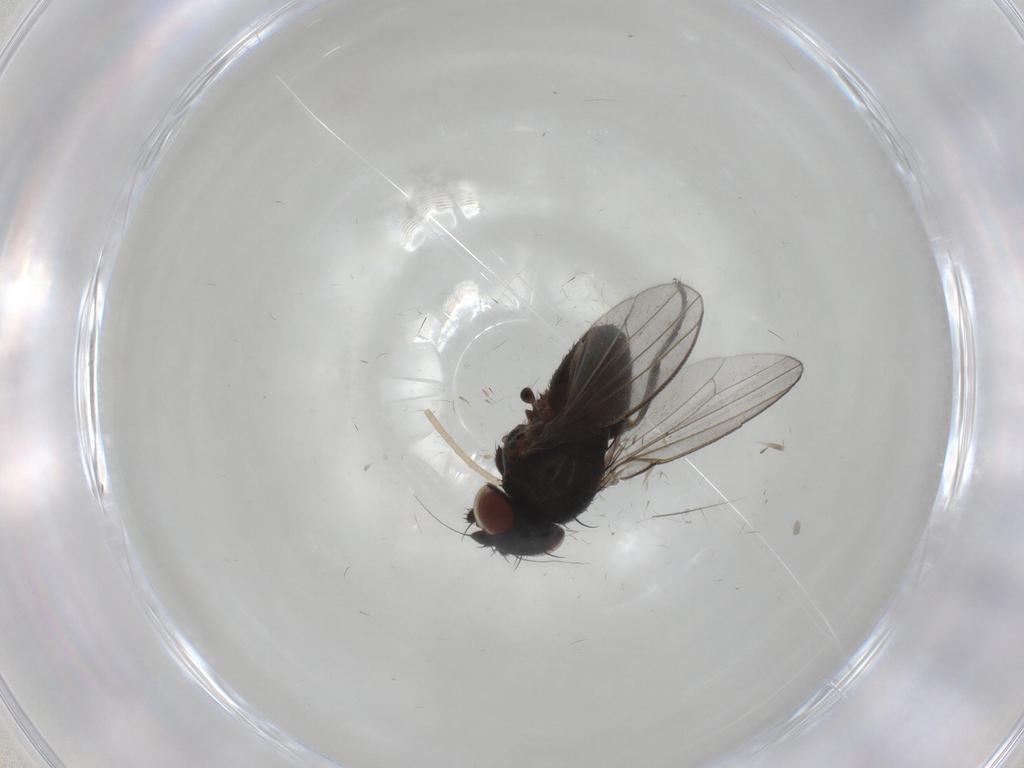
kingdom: Animalia
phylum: Arthropoda
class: Insecta
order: Diptera
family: Milichiidae
